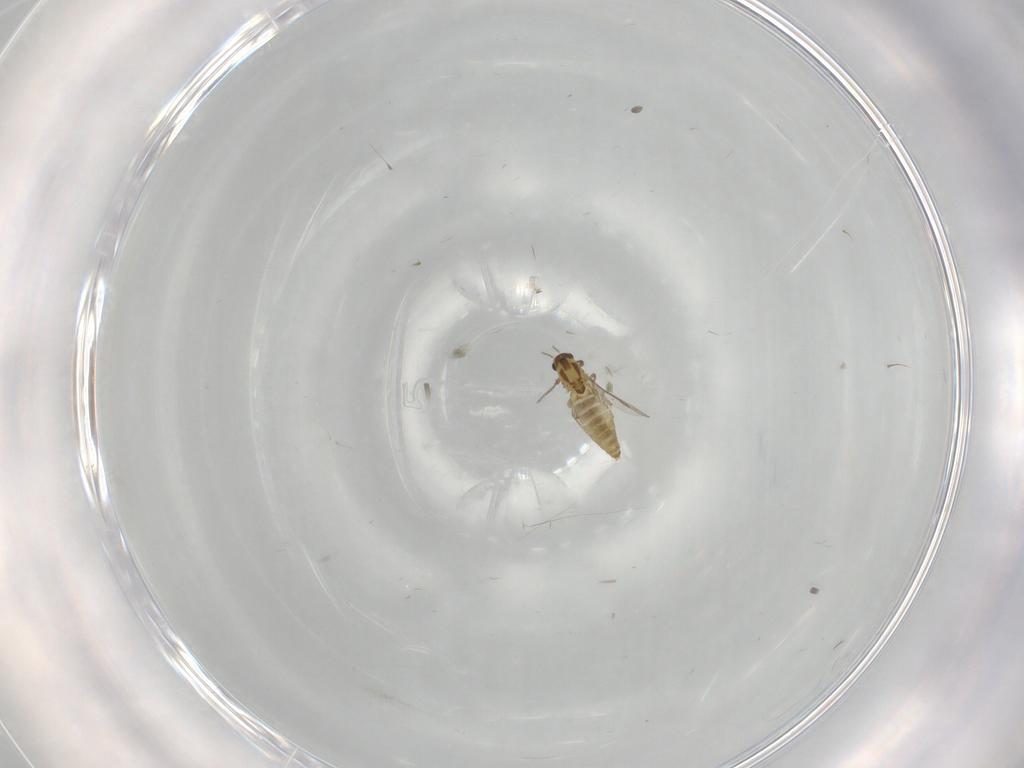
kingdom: Animalia
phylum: Arthropoda
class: Insecta
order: Diptera
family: Chironomidae
